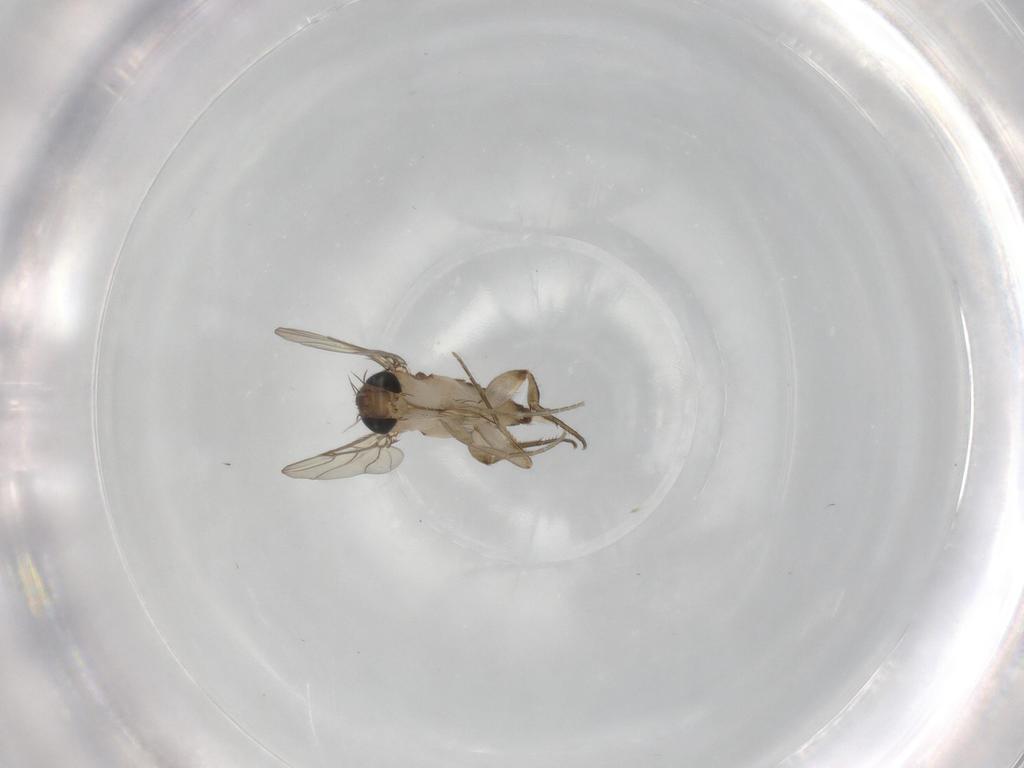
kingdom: Animalia
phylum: Arthropoda
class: Insecta
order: Diptera
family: Phoridae
